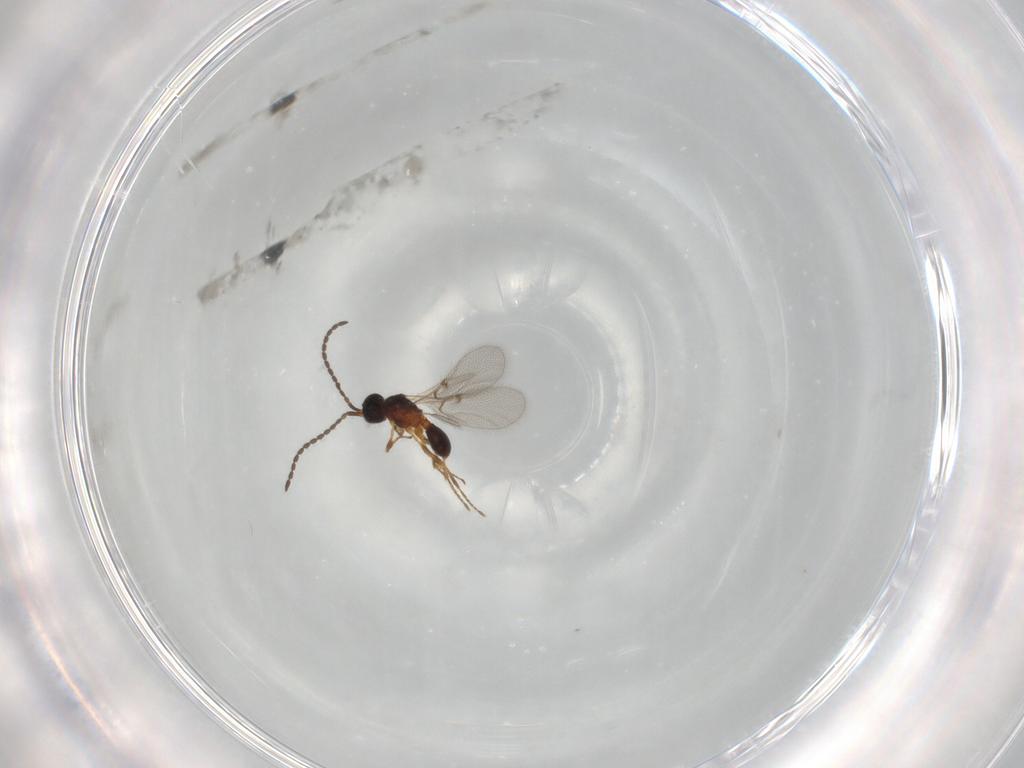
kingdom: Animalia
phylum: Arthropoda
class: Insecta
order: Hymenoptera
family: Diapriidae
